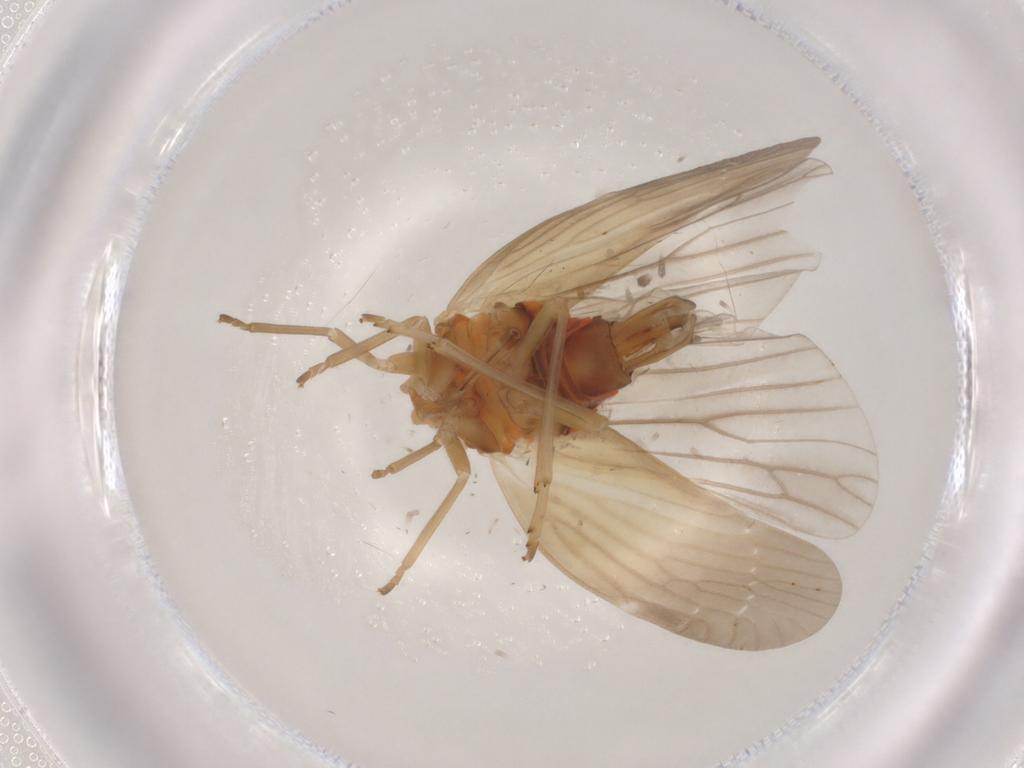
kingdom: Animalia
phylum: Arthropoda
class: Insecta
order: Hemiptera
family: Derbidae
